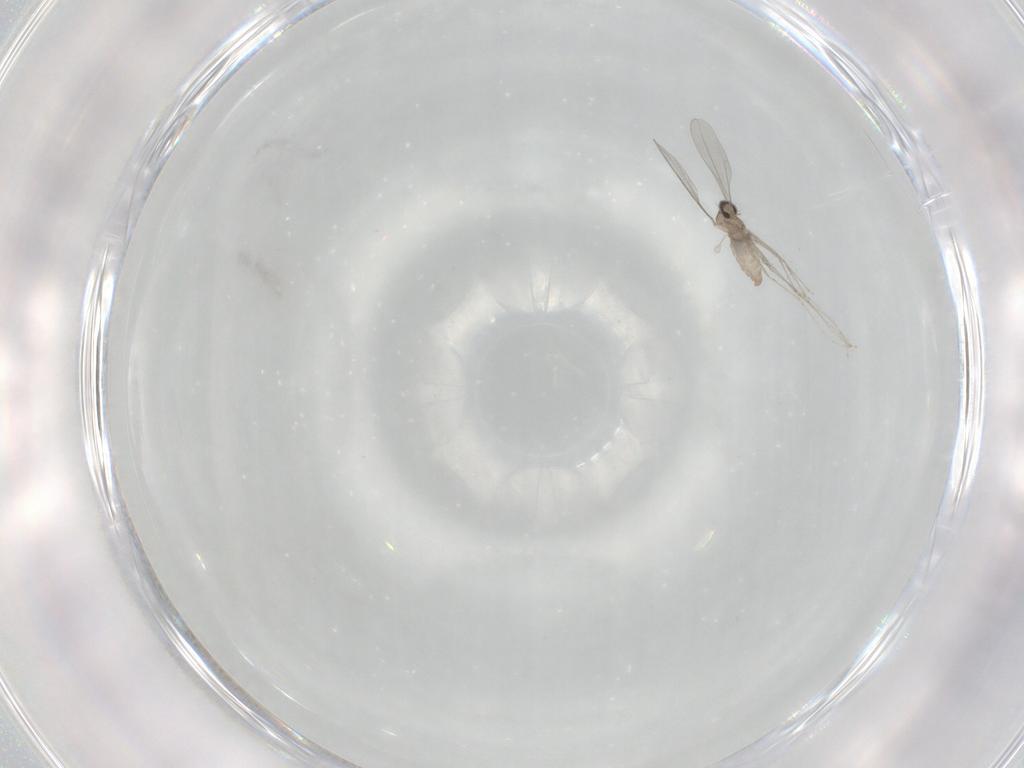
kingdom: Animalia
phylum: Arthropoda
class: Insecta
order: Diptera
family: Cecidomyiidae
